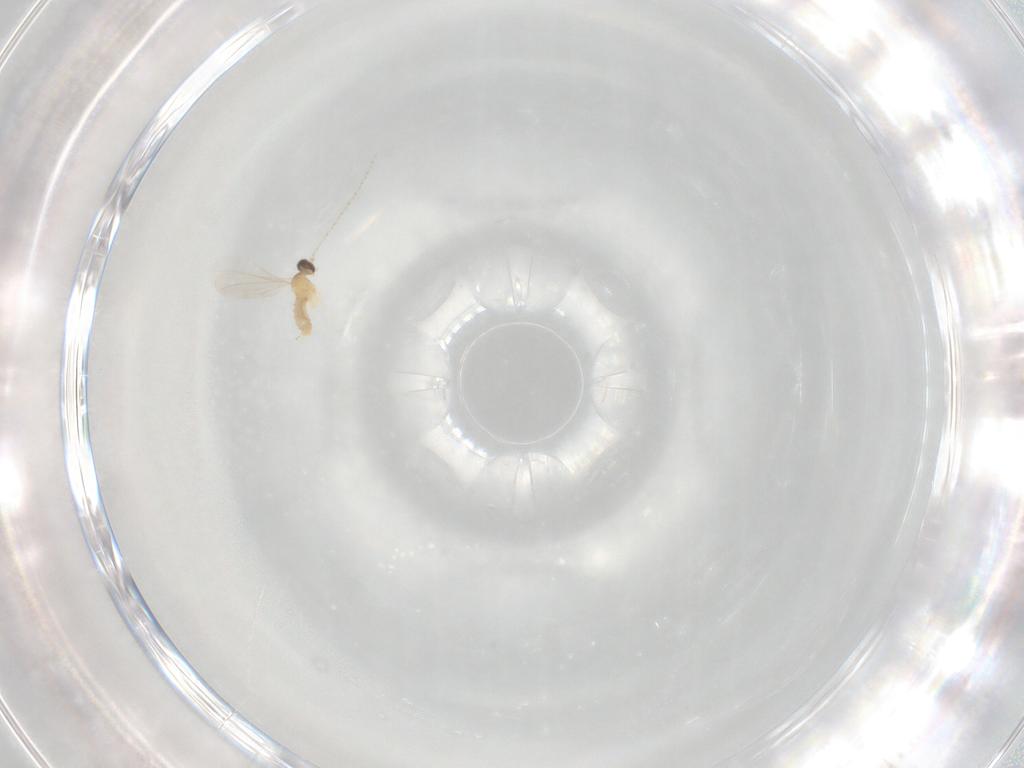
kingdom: Animalia
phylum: Arthropoda
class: Insecta
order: Diptera
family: Cecidomyiidae
